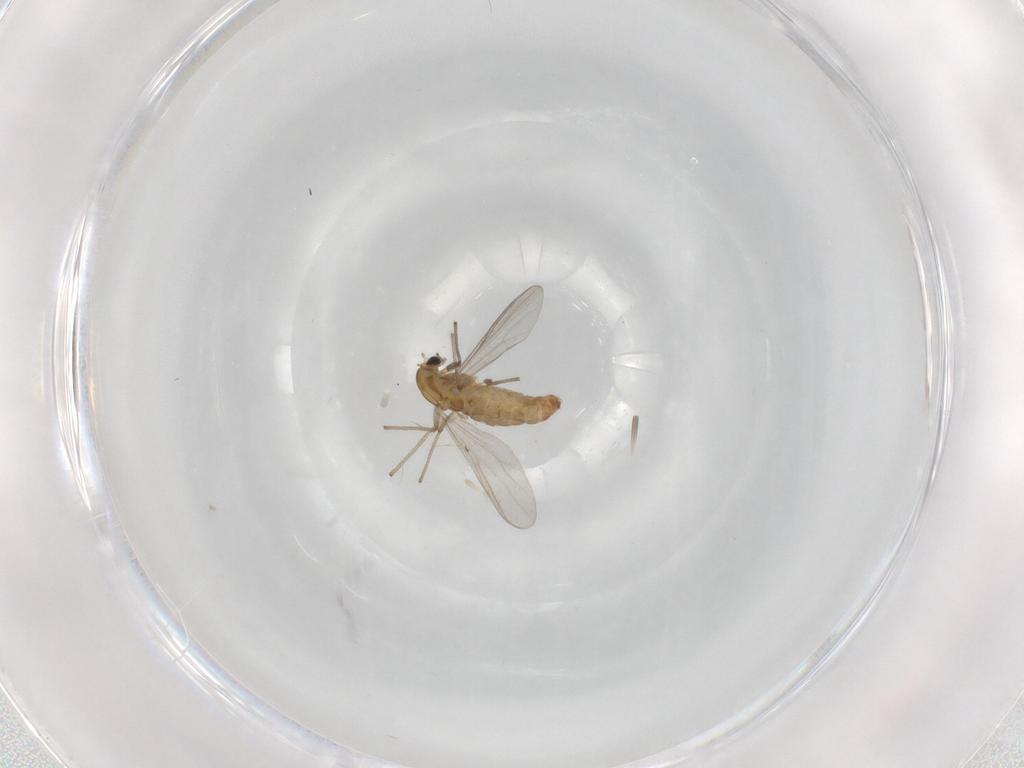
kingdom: Animalia
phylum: Arthropoda
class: Insecta
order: Diptera
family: Chironomidae
